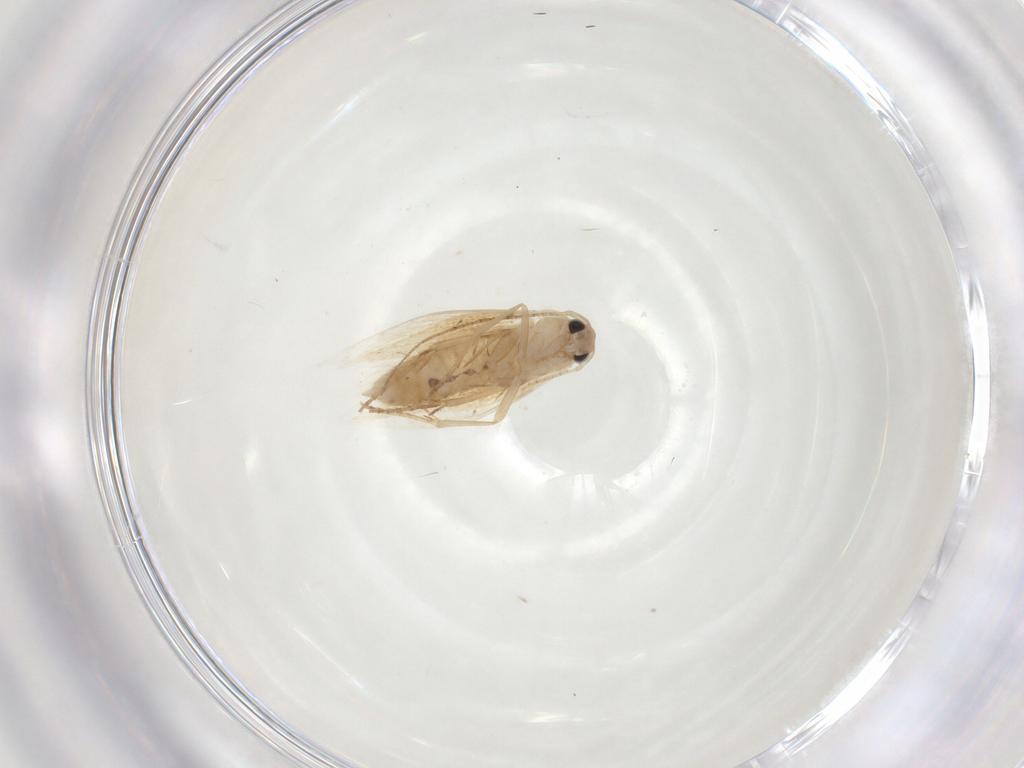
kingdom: Animalia
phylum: Arthropoda
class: Insecta
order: Lepidoptera
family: Bucculatricidae
